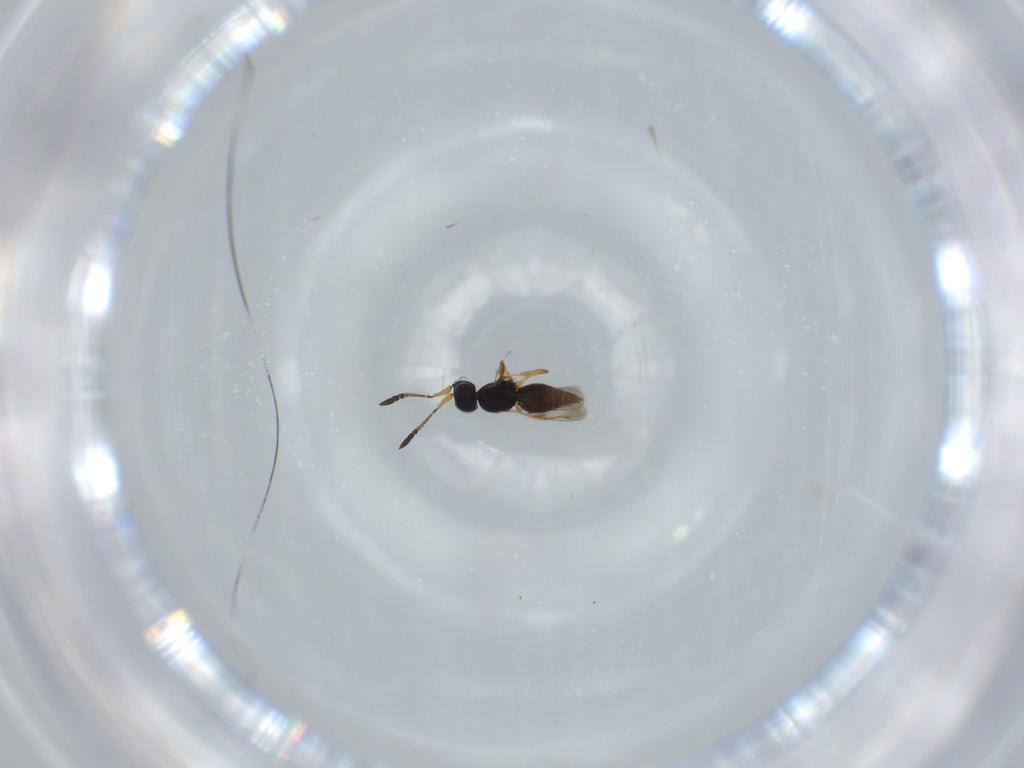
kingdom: Animalia
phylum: Arthropoda
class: Insecta
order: Hymenoptera
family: Ceraphronidae
